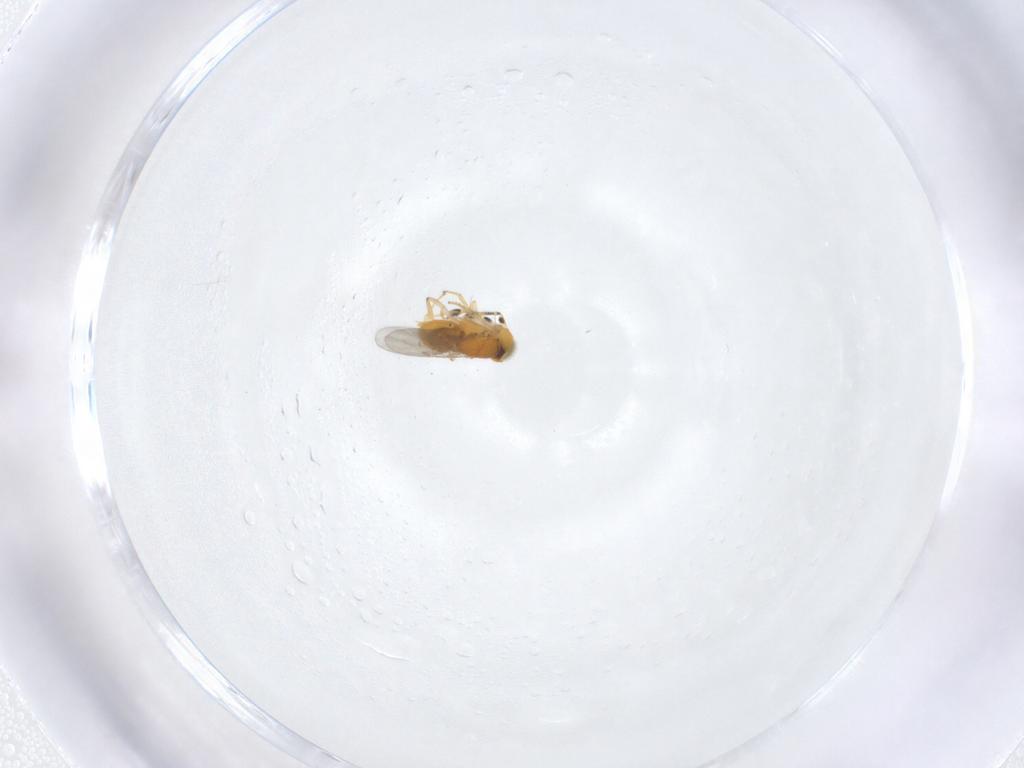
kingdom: Animalia
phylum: Arthropoda
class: Insecta
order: Hymenoptera
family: Eulophidae
